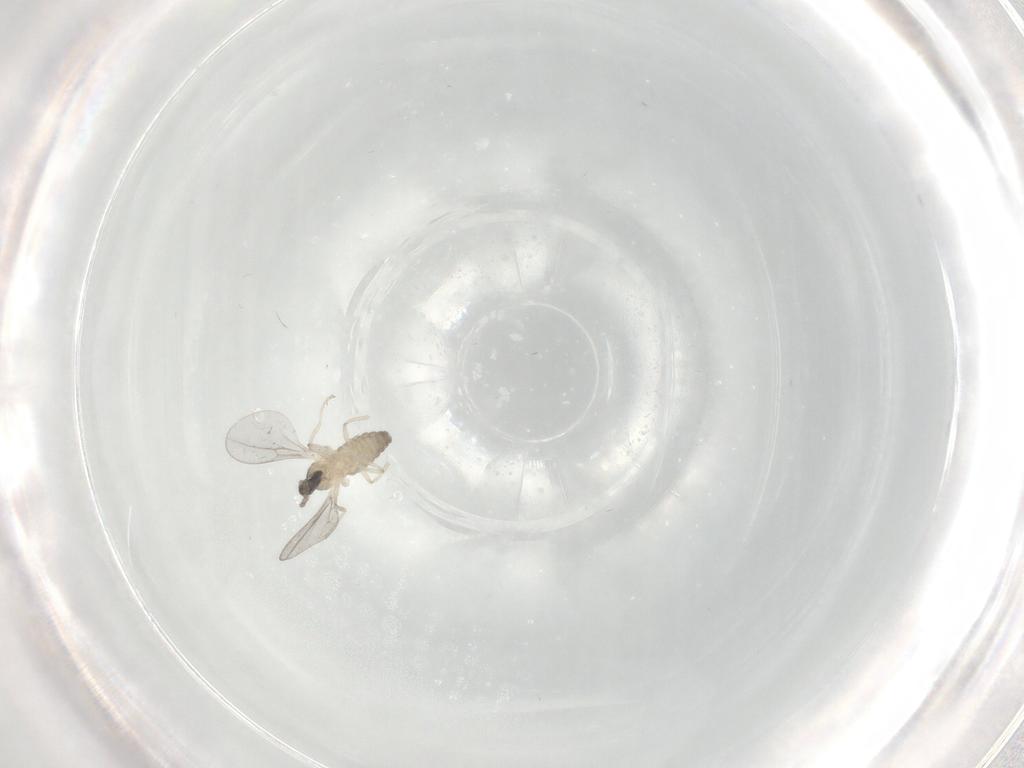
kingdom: Animalia
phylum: Arthropoda
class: Insecta
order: Diptera
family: Cecidomyiidae
